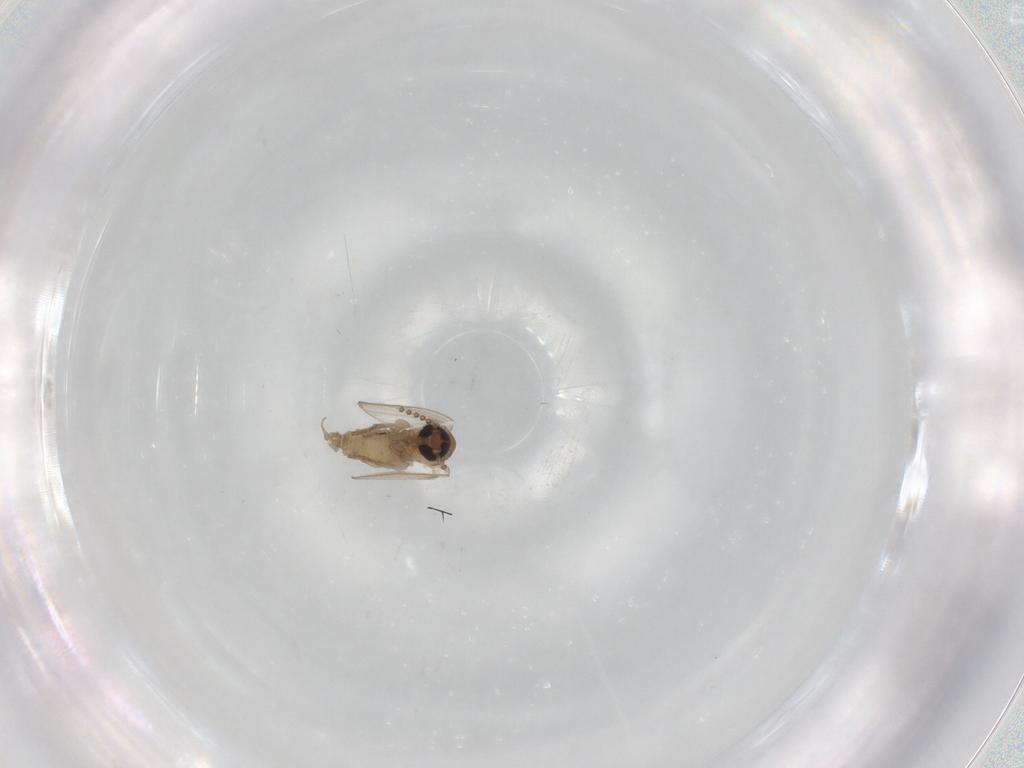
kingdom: Animalia
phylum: Arthropoda
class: Insecta
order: Diptera
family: Psychodidae
